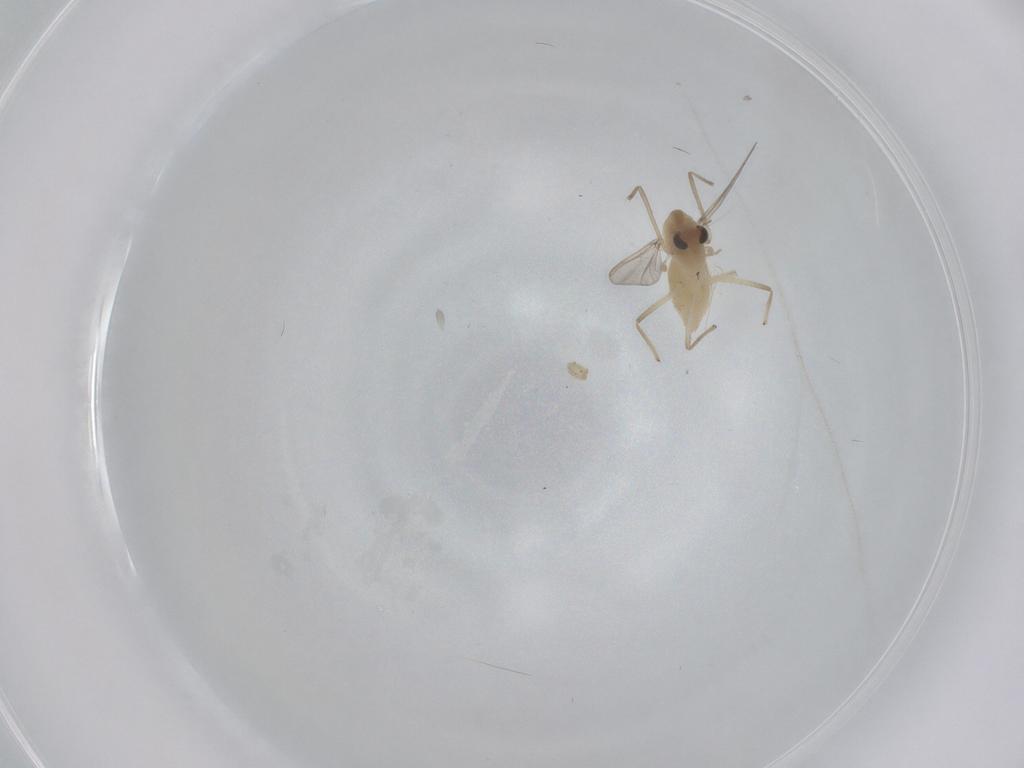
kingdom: Animalia
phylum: Arthropoda
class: Insecta
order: Diptera
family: Chironomidae
